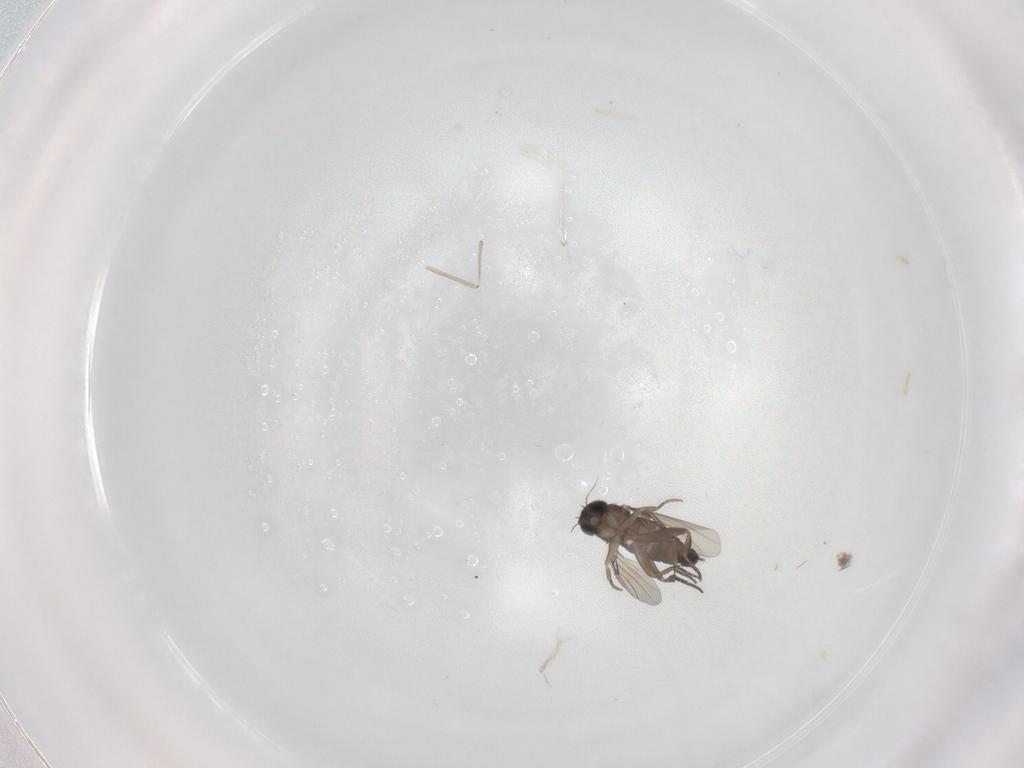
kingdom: Animalia
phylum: Arthropoda
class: Insecta
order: Diptera
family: Phoridae
